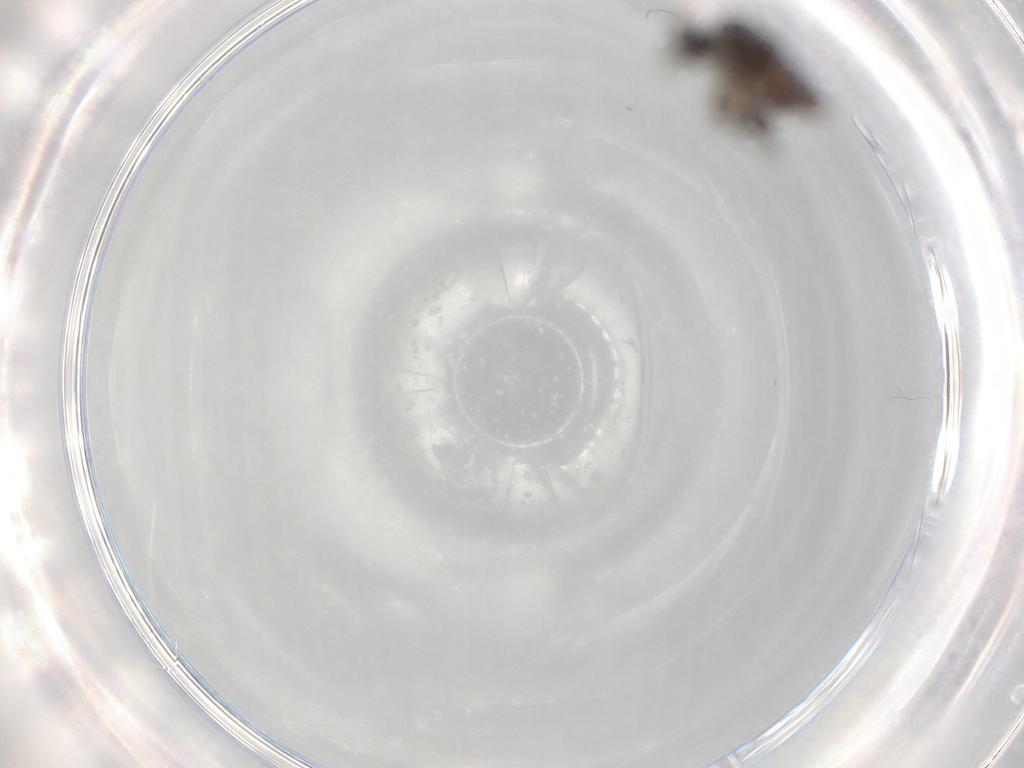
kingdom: Animalia
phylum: Arthropoda
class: Insecta
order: Diptera
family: Ceratopogonidae
